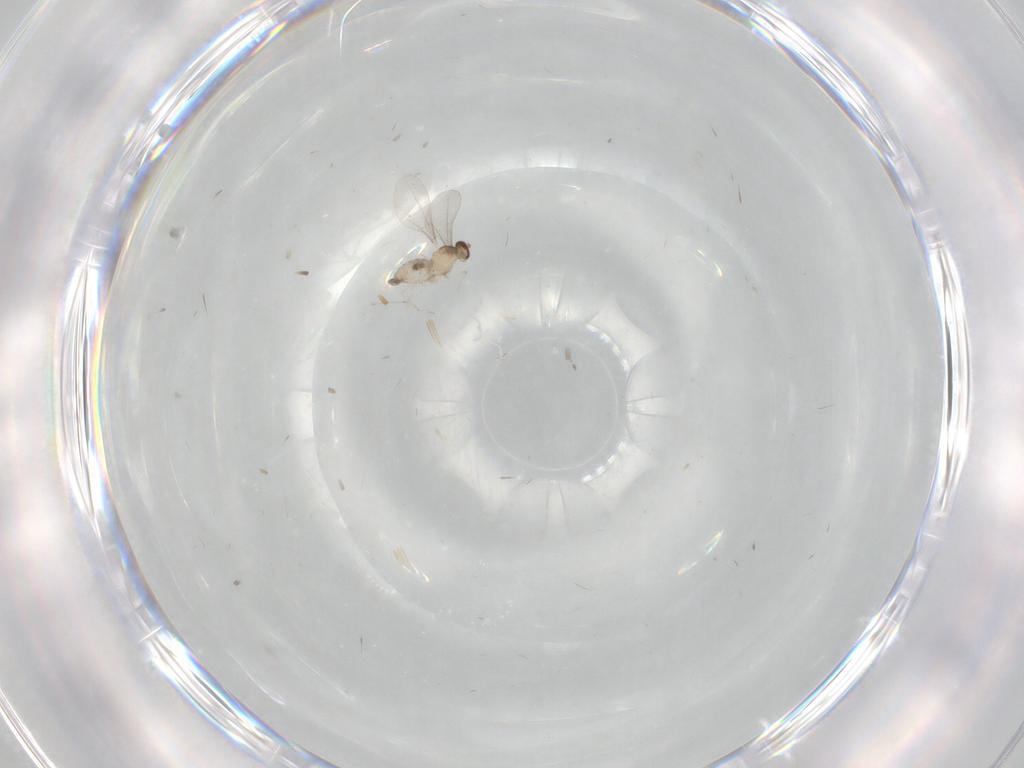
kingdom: Animalia
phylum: Arthropoda
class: Insecta
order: Diptera
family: Cecidomyiidae
